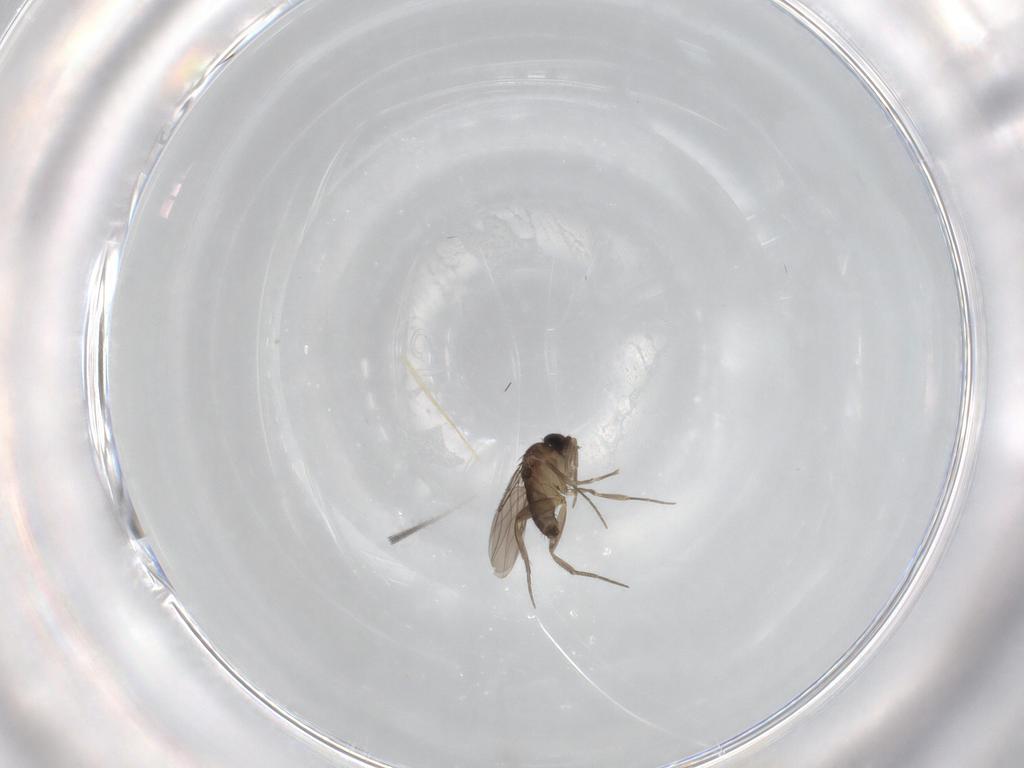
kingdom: Animalia
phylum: Arthropoda
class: Insecta
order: Diptera
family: Phoridae
